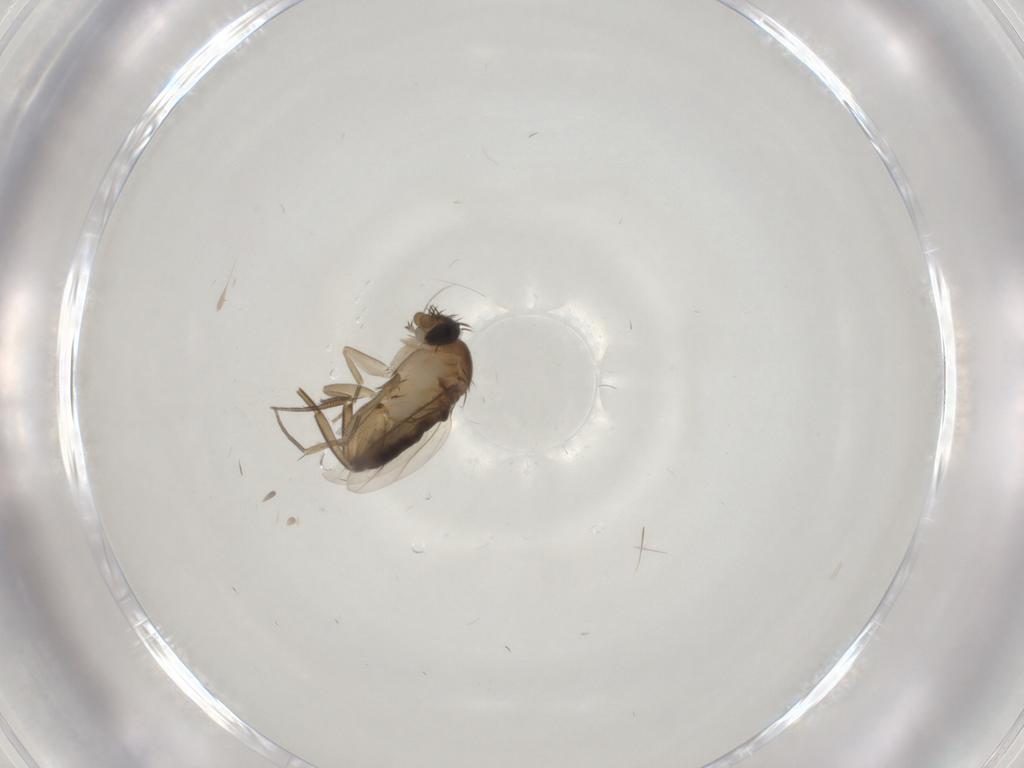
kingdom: Animalia
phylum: Arthropoda
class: Insecta
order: Diptera
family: Phoridae
